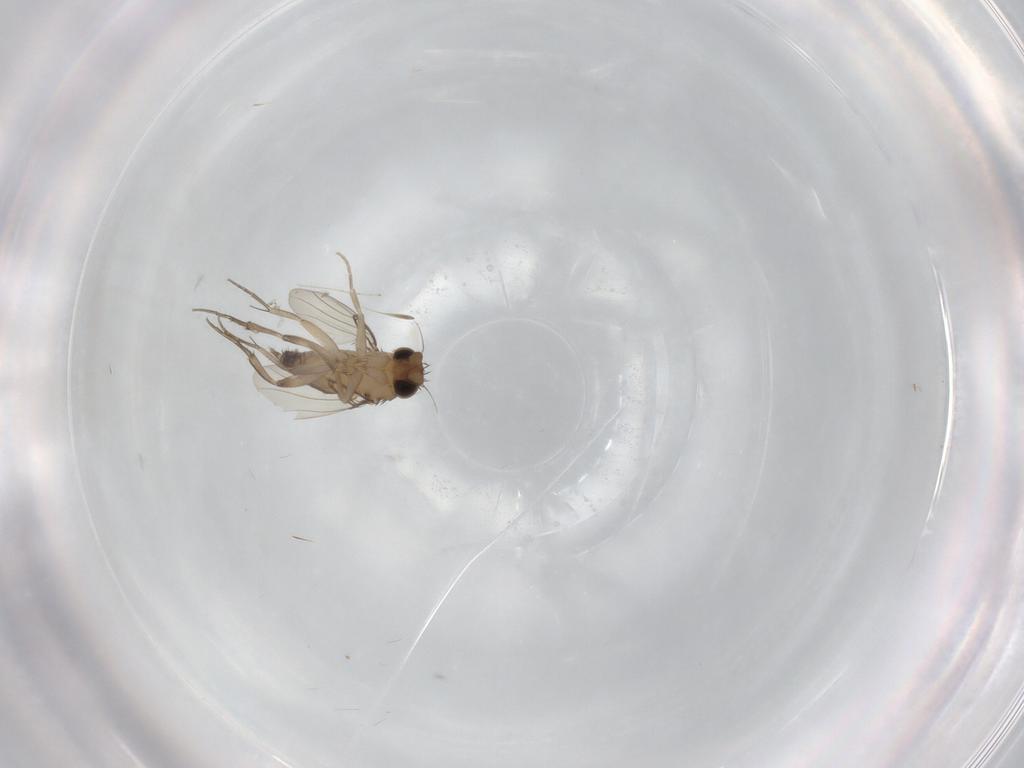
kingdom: Animalia
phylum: Arthropoda
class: Insecta
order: Diptera
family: Phoridae
